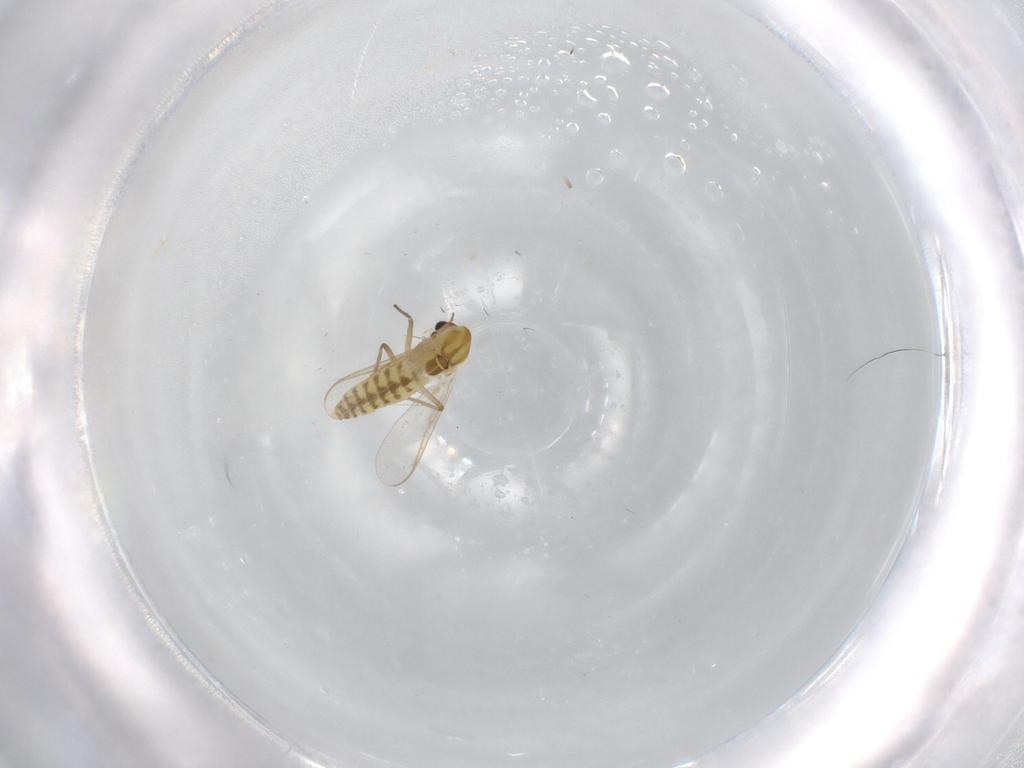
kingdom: Animalia
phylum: Arthropoda
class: Insecta
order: Diptera
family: Chironomidae
